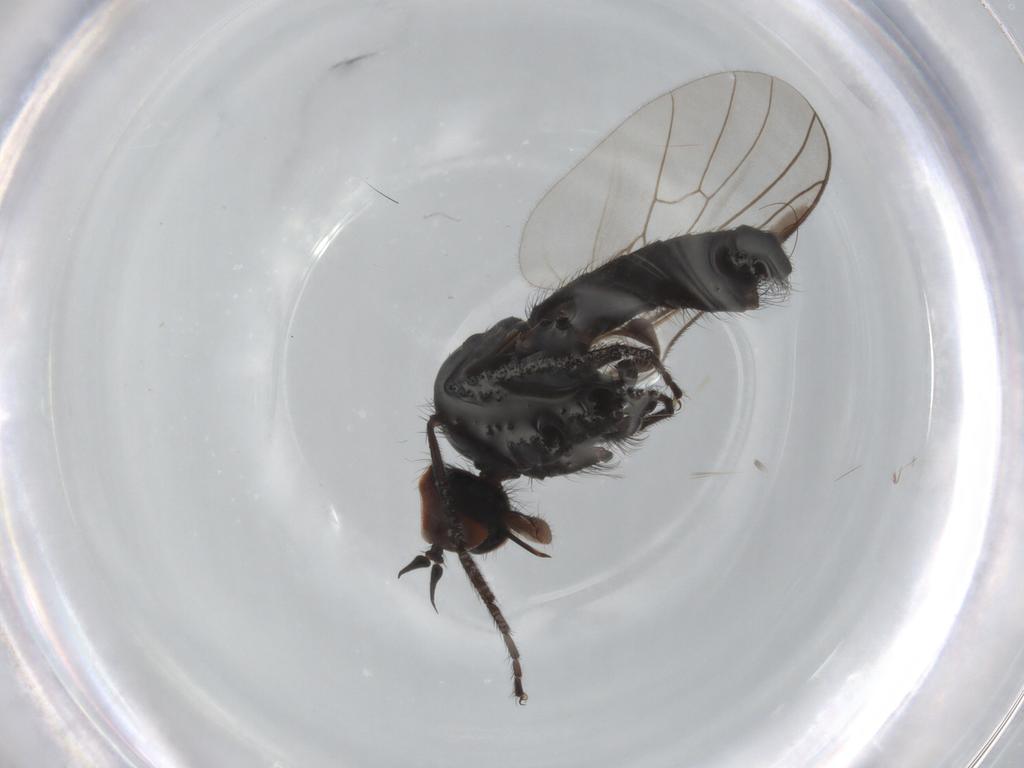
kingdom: Animalia
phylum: Arthropoda
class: Insecta
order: Diptera
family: Empididae
